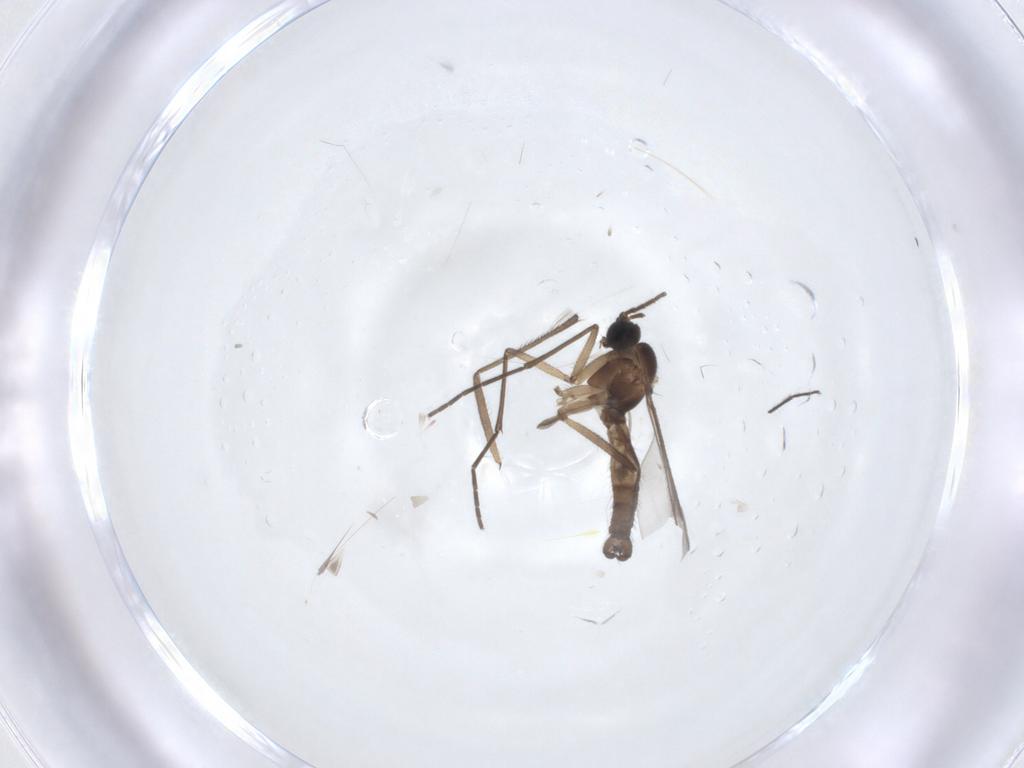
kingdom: Animalia
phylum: Arthropoda
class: Insecta
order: Diptera
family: Sciaridae
